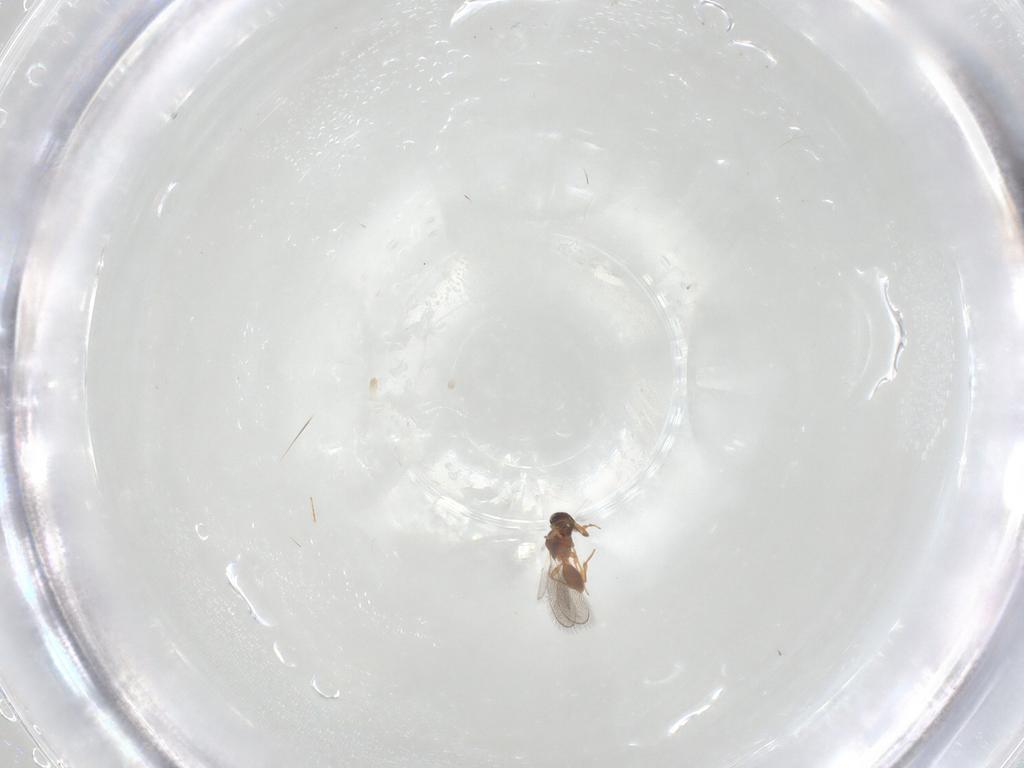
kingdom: Animalia
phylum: Arthropoda
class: Insecta
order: Hymenoptera
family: Platygastridae
